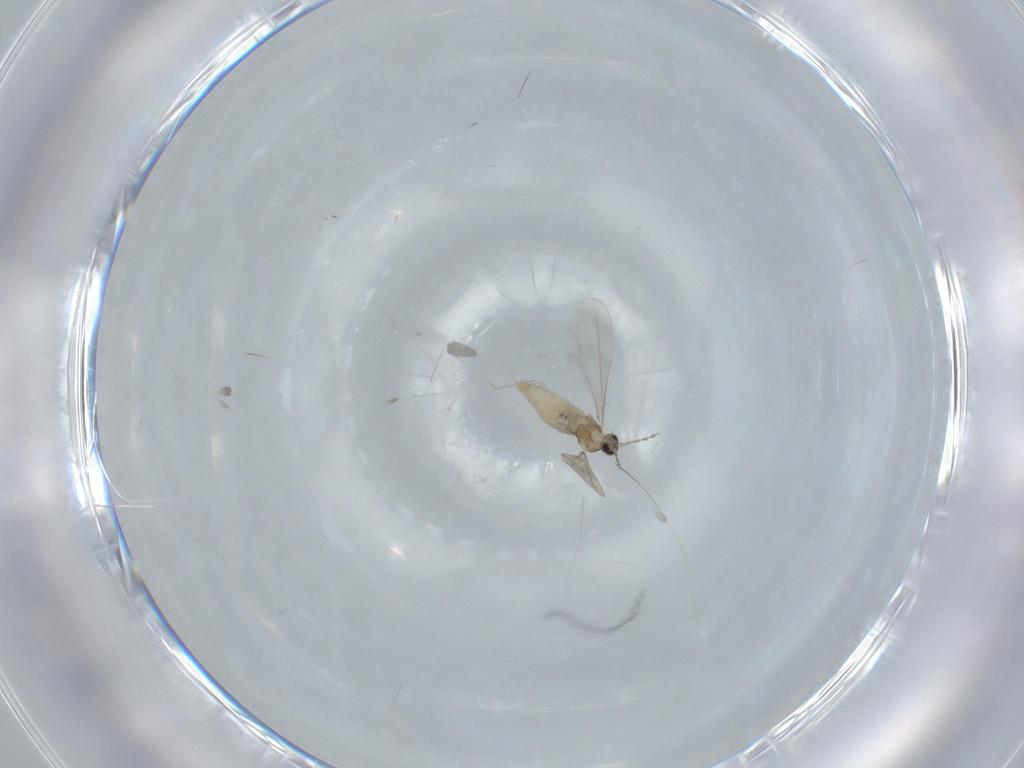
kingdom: Animalia
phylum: Arthropoda
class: Insecta
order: Diptera
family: Cecidomyiidae
